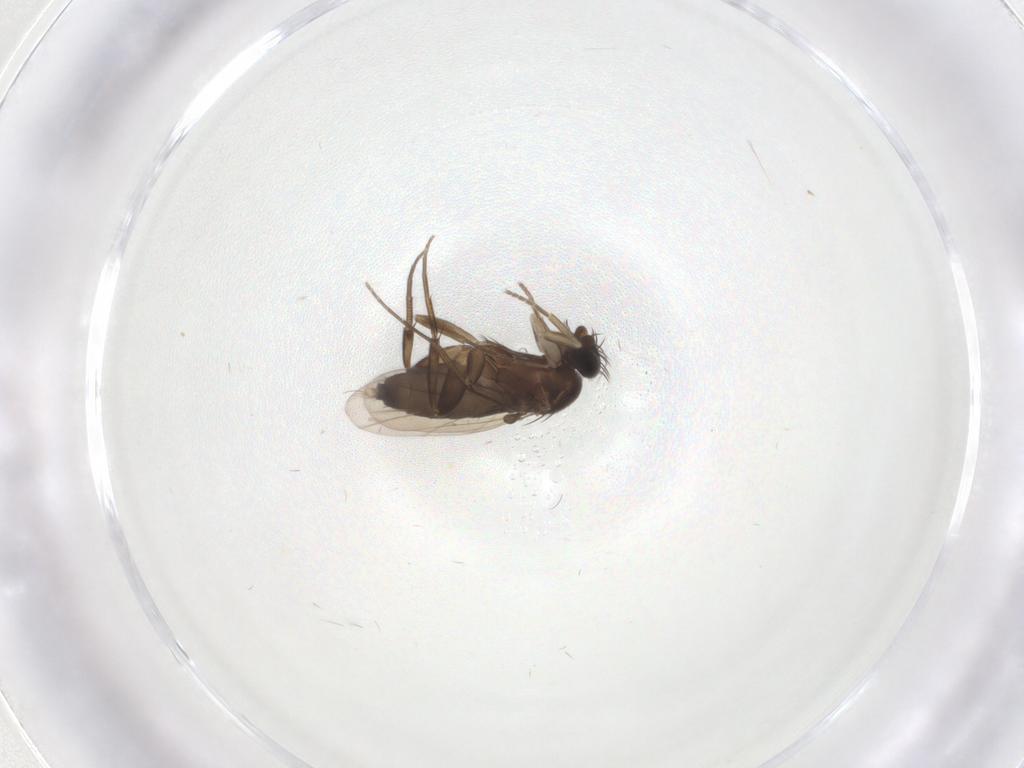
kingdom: Animalia
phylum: Arthropoda
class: Insecta
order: Diptera
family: Phoridae
